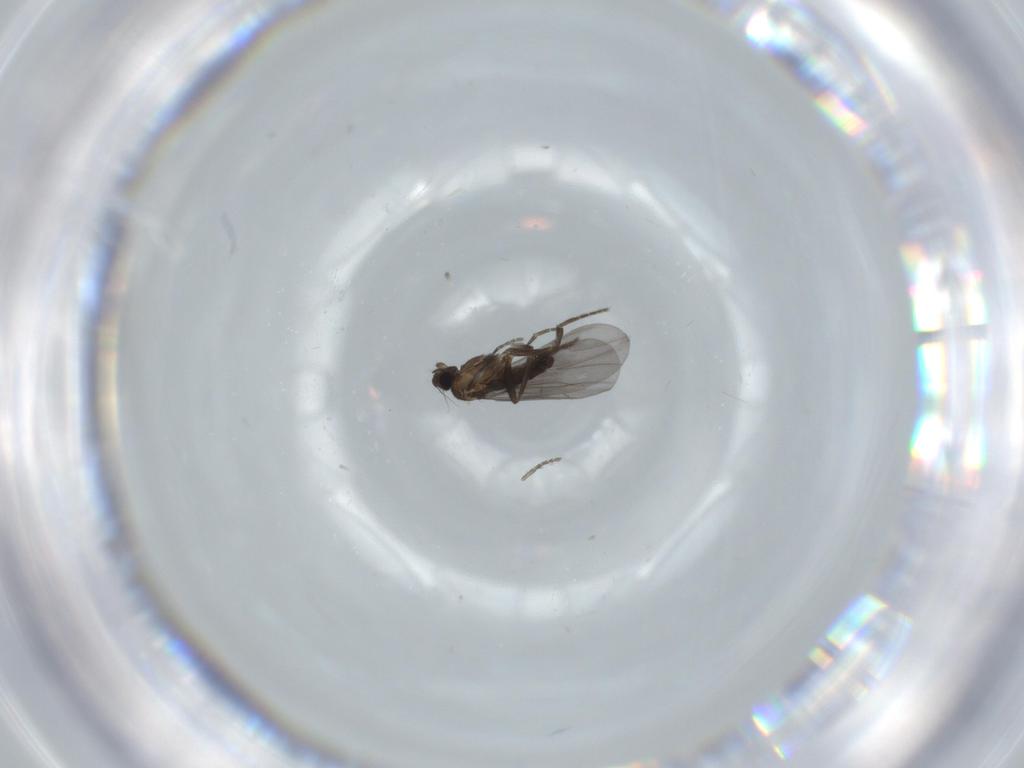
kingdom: Animalia
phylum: Arthropoda
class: Insecta
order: Diptera
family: Phoridae
